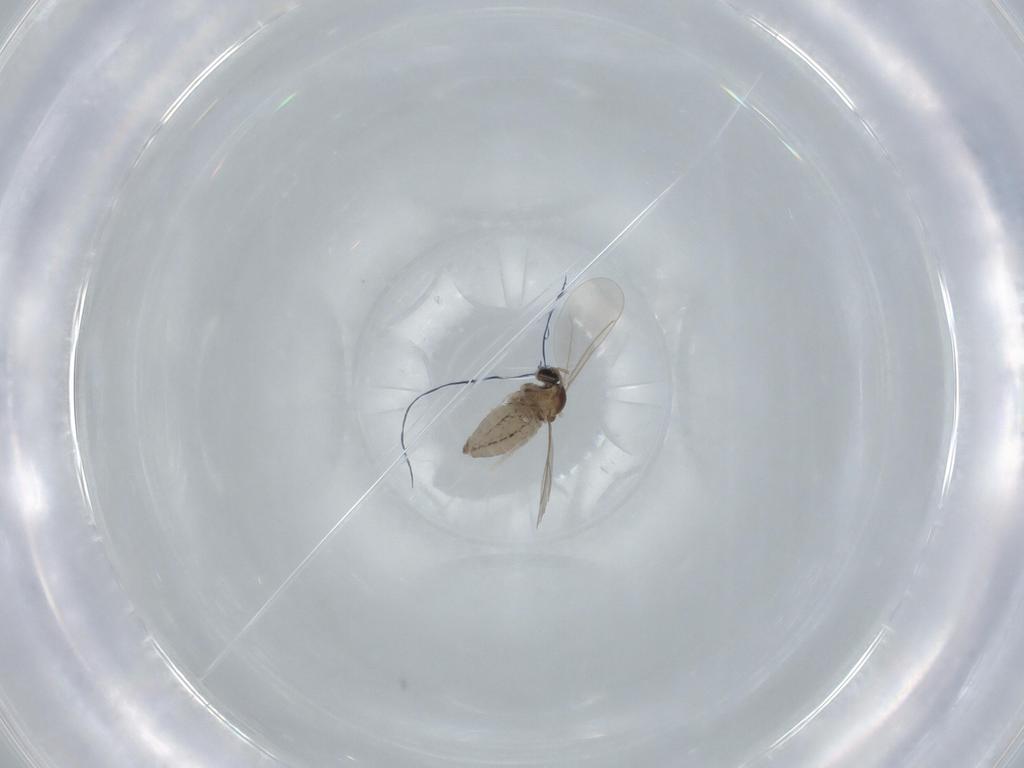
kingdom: Animalia
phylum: Arthropoda
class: Insecta
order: Diptera
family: Cecidomyiidae
